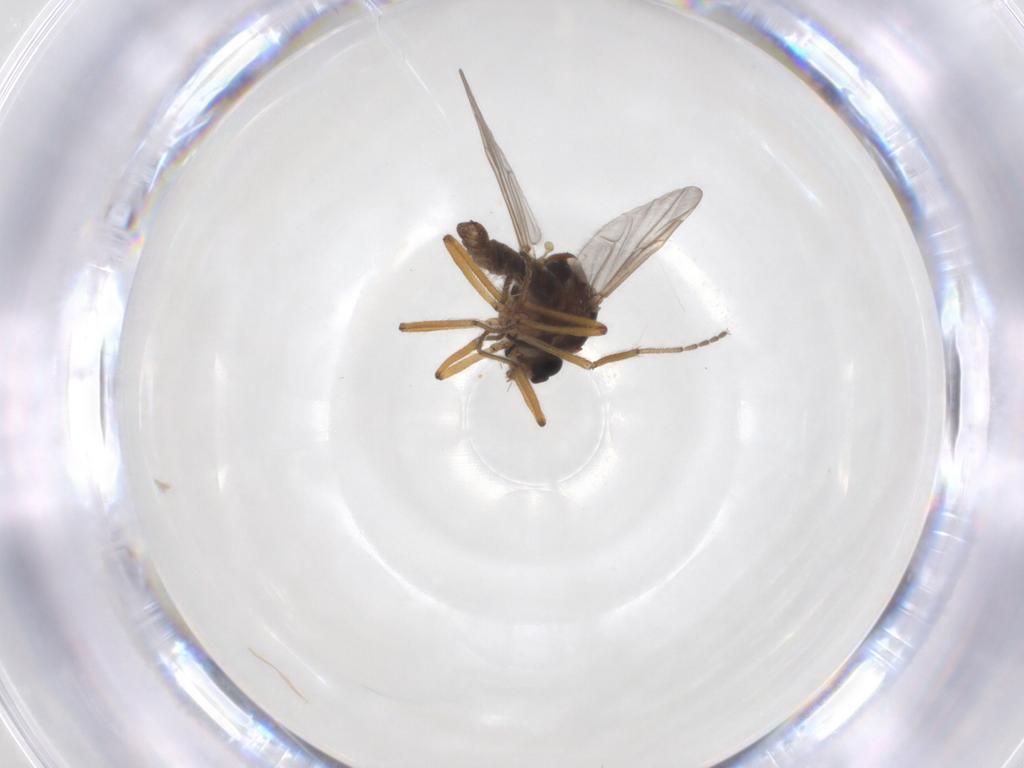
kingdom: Animalia
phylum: Arthropoda
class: Insecta
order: Diptera
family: Ceratopogonidae
